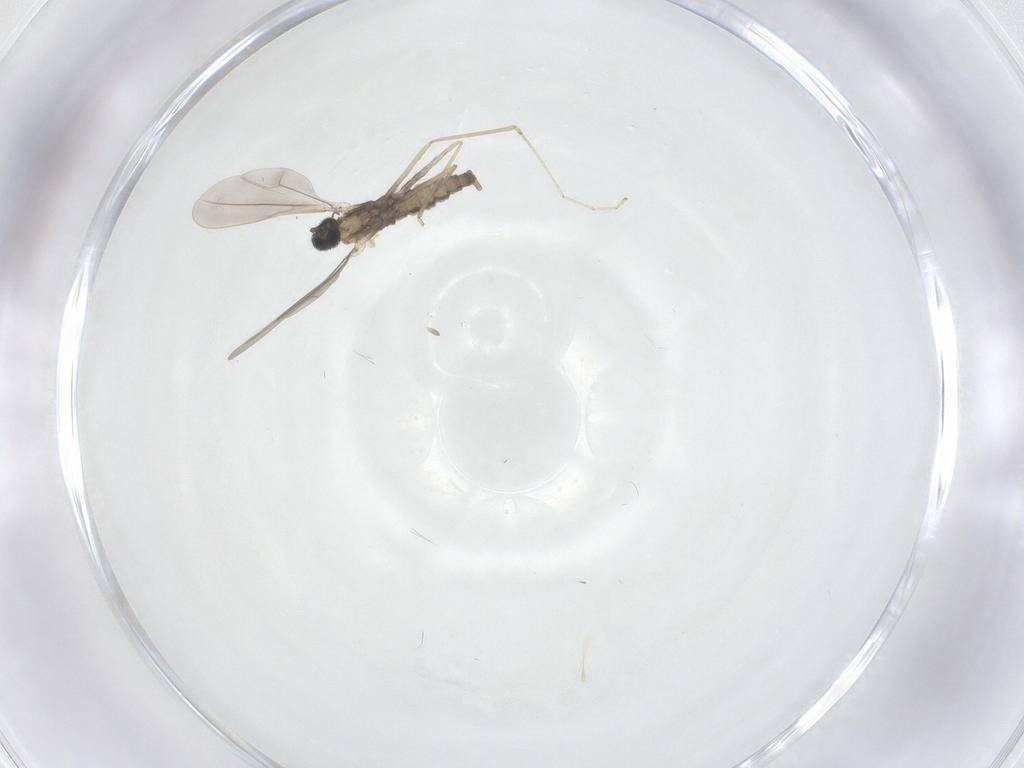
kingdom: Animalia
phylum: Arthropoda
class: Insecta
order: Diptera
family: Cecidomyiidae
